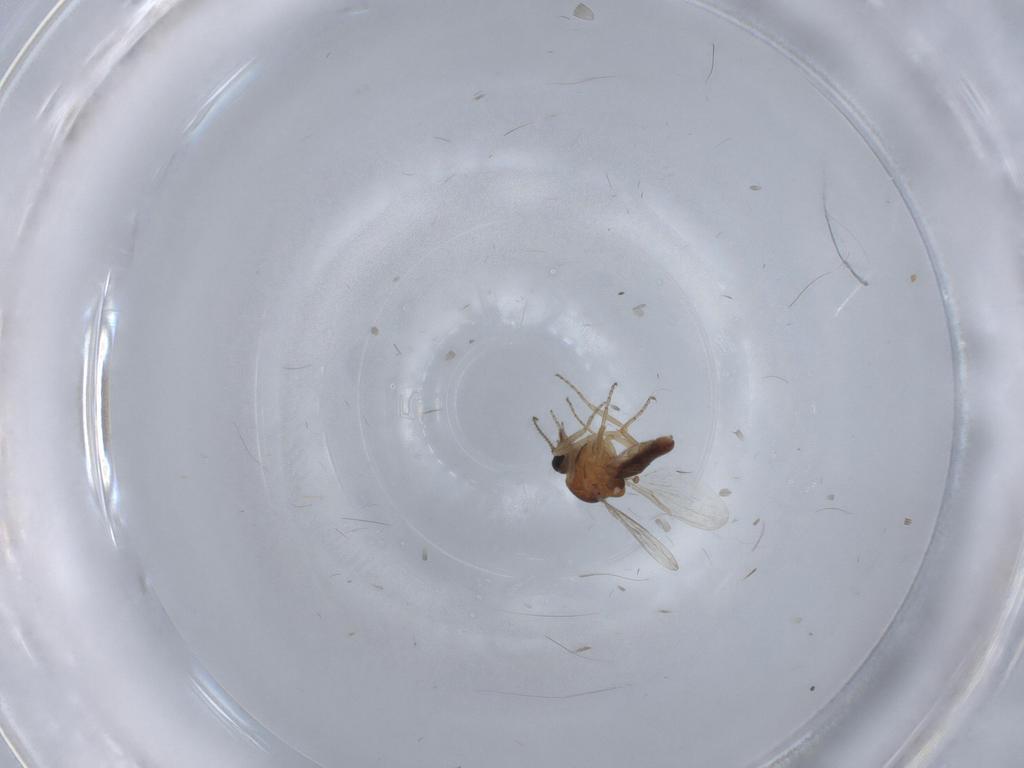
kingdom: Animalia
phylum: Arthropoda
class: Insecta
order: Diptera
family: Ceratopogonidae
